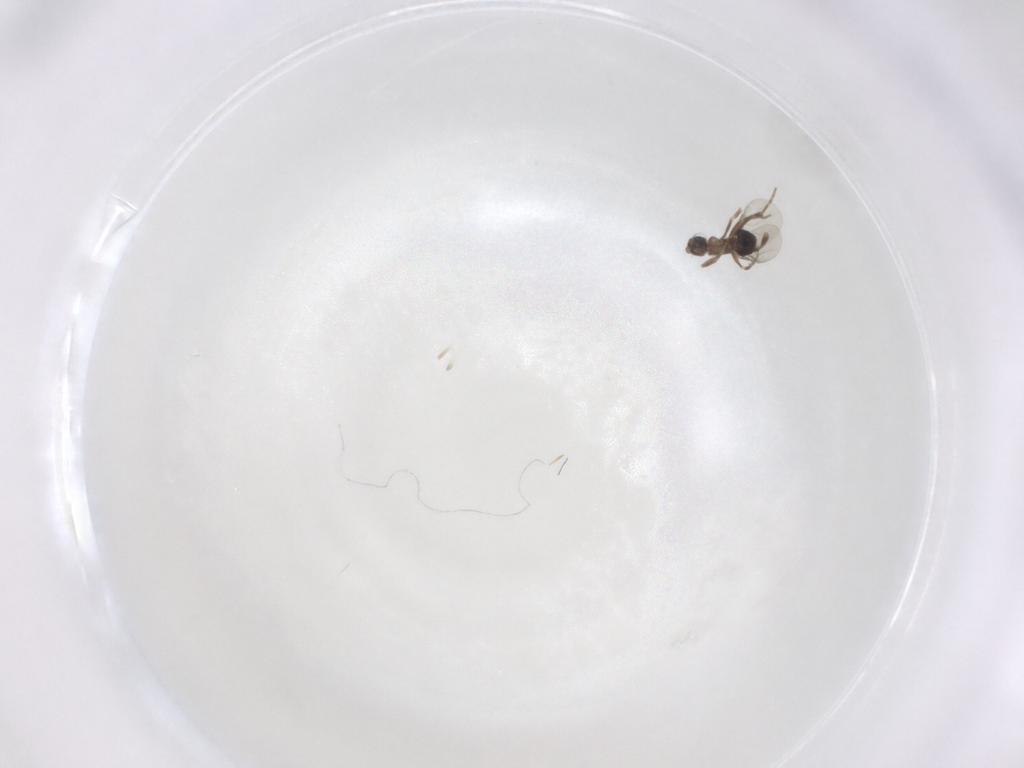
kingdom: Animalia
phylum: Arthropoda
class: Insecta
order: Diptera
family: Phoridae
